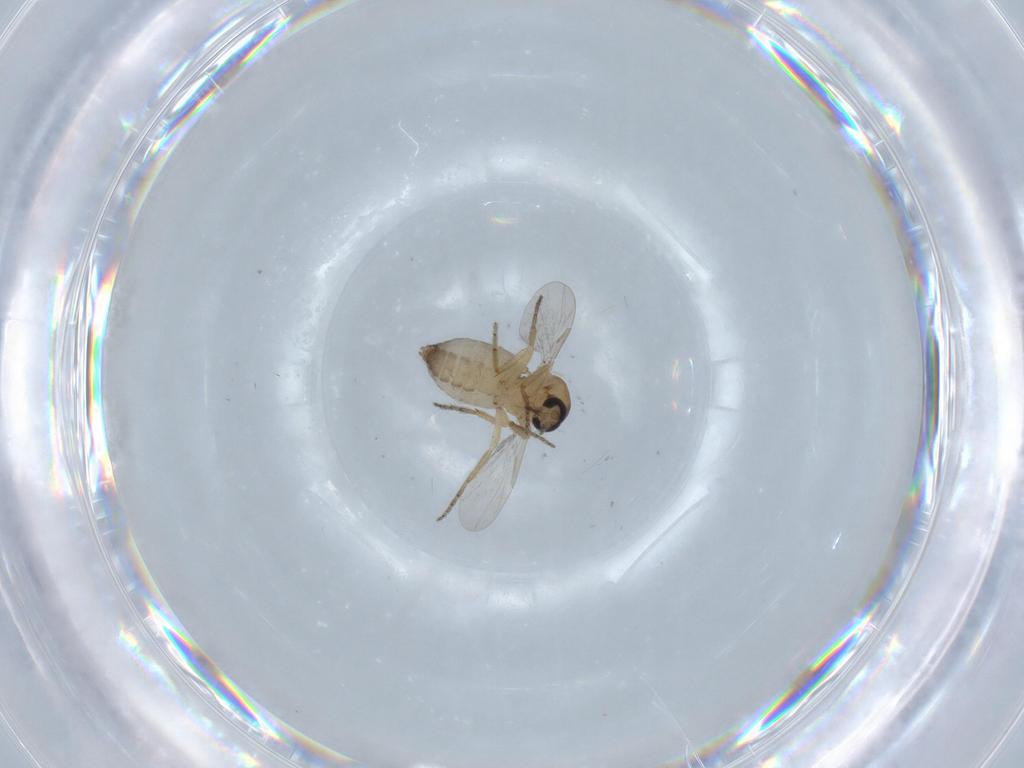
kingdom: Animalia
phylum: Arthropoda
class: Insecta
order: Diptera
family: Ceratopogonidae
